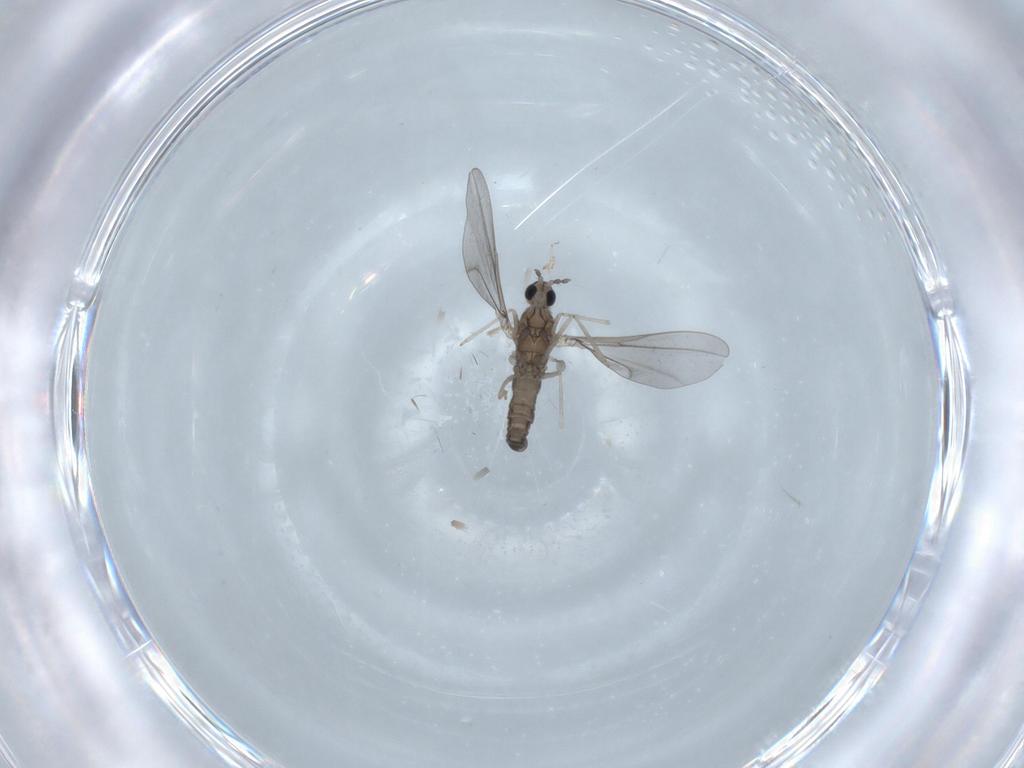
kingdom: Animalia
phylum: Arthropoda
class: Insecta
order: Diptera
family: Cecidomyiidae
